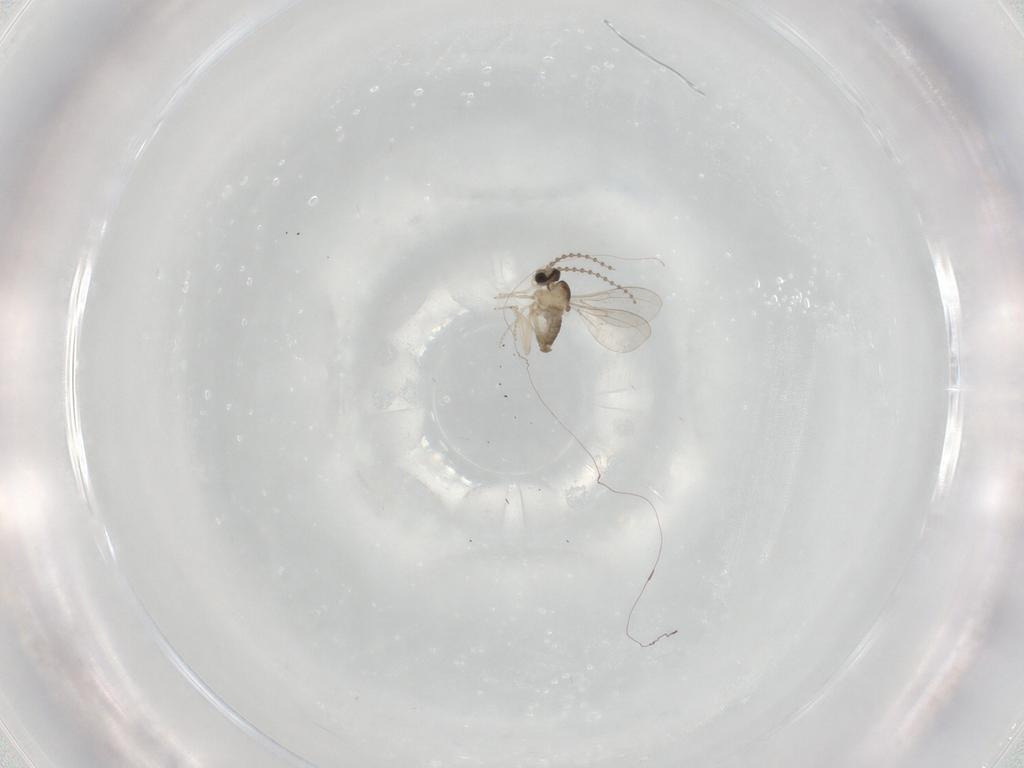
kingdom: Animalia
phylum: Arthropoda
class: Insecta
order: Diptera
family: Cecidomyiidae
